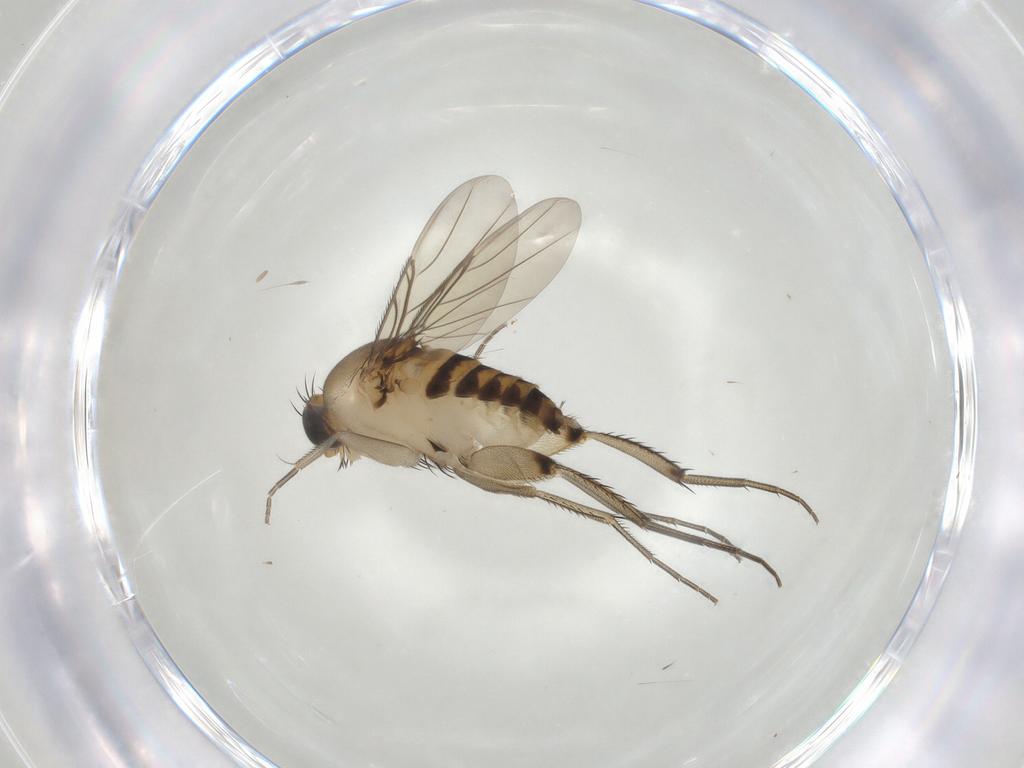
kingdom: Animalia
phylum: Arthropoda
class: Insecta
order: Diptera
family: Phoridae
